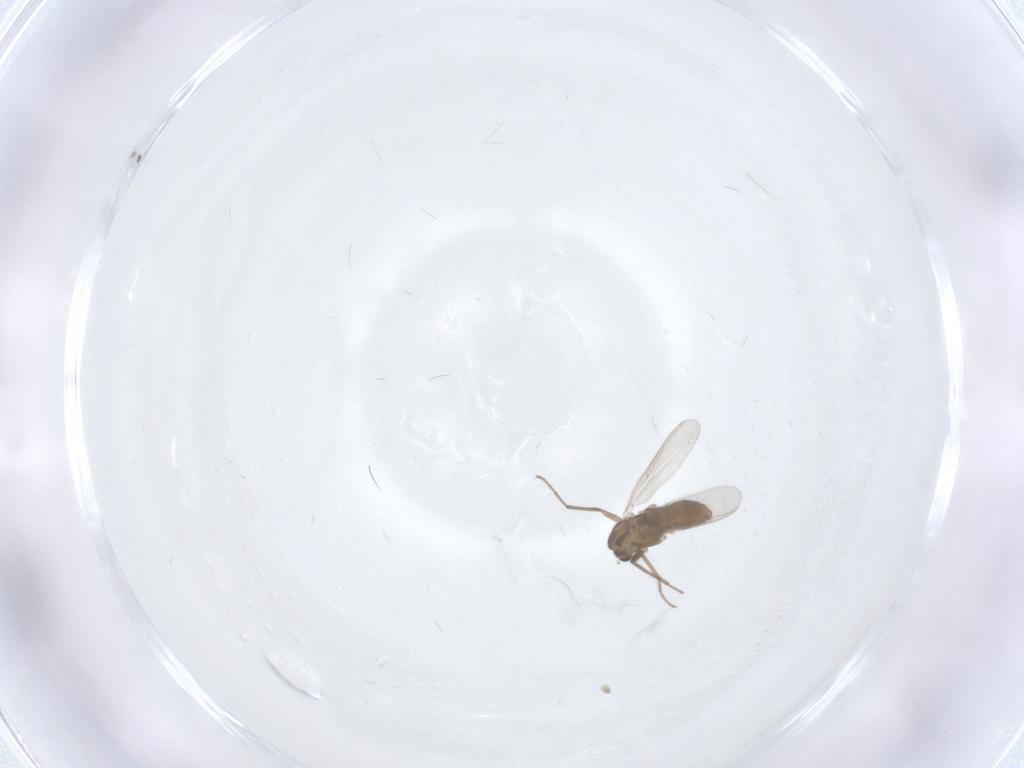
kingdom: Animalia
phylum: Arthropoda
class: Insecta
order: Diptera
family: Chironomidae
